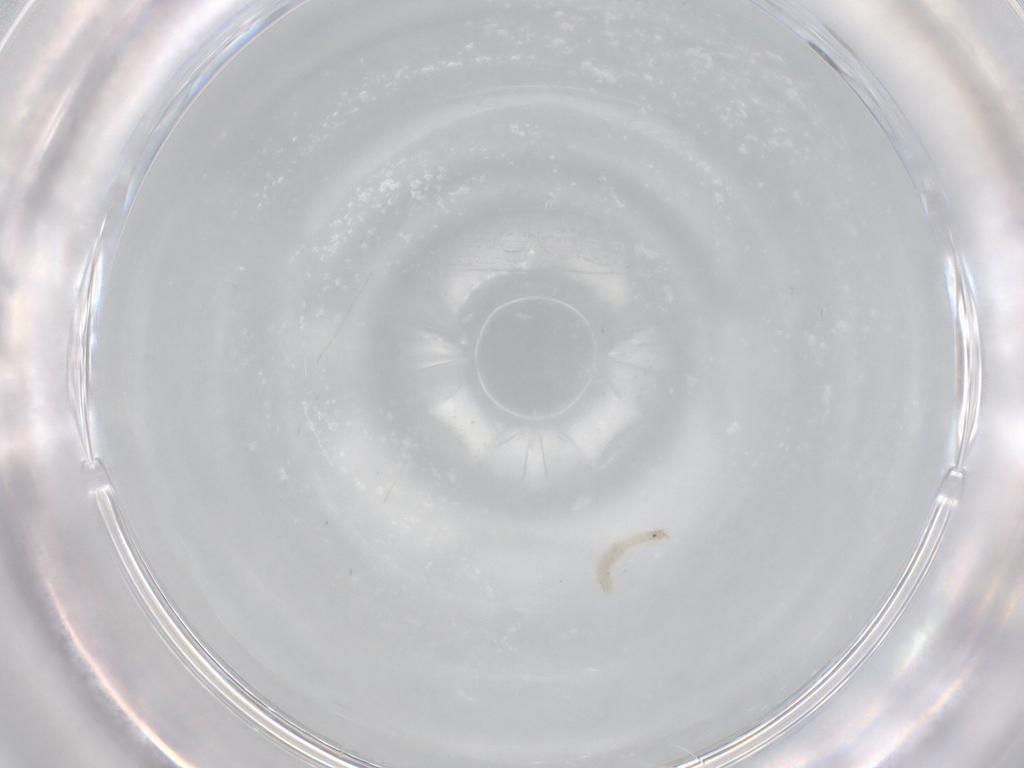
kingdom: Animalia
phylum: Arthropoda
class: Insecta
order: Diptera
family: Cecidomyiidae
